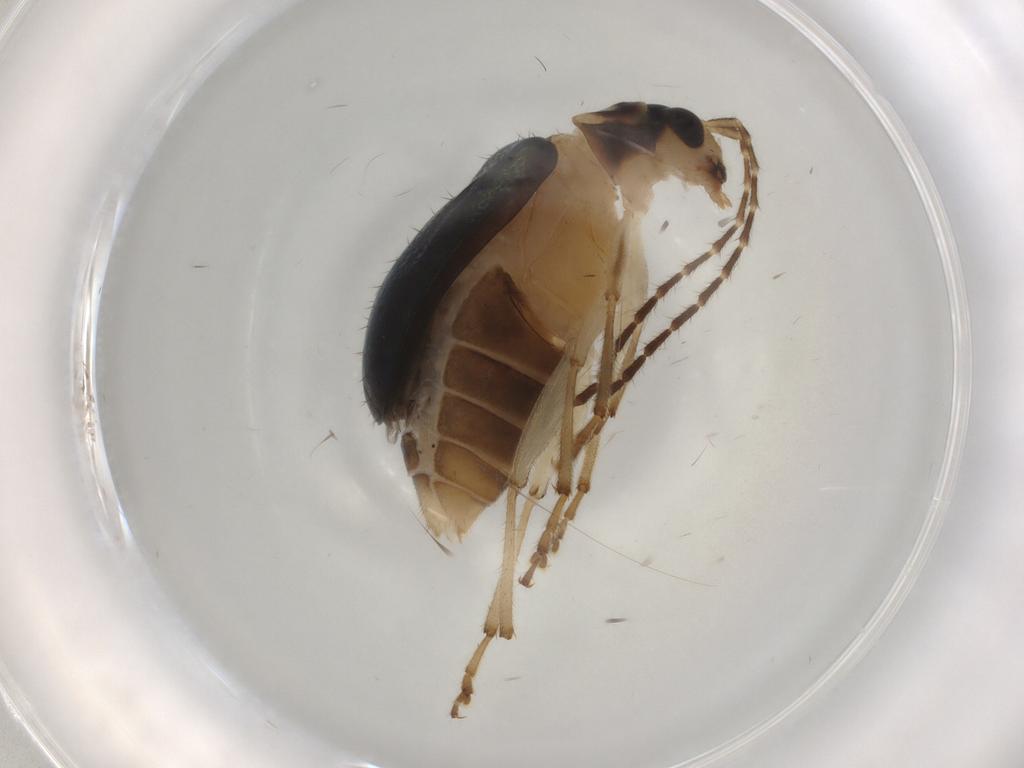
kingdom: Animalia
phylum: Arthropoda
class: Insecta
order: Coleoptera
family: Chrysomelidae
